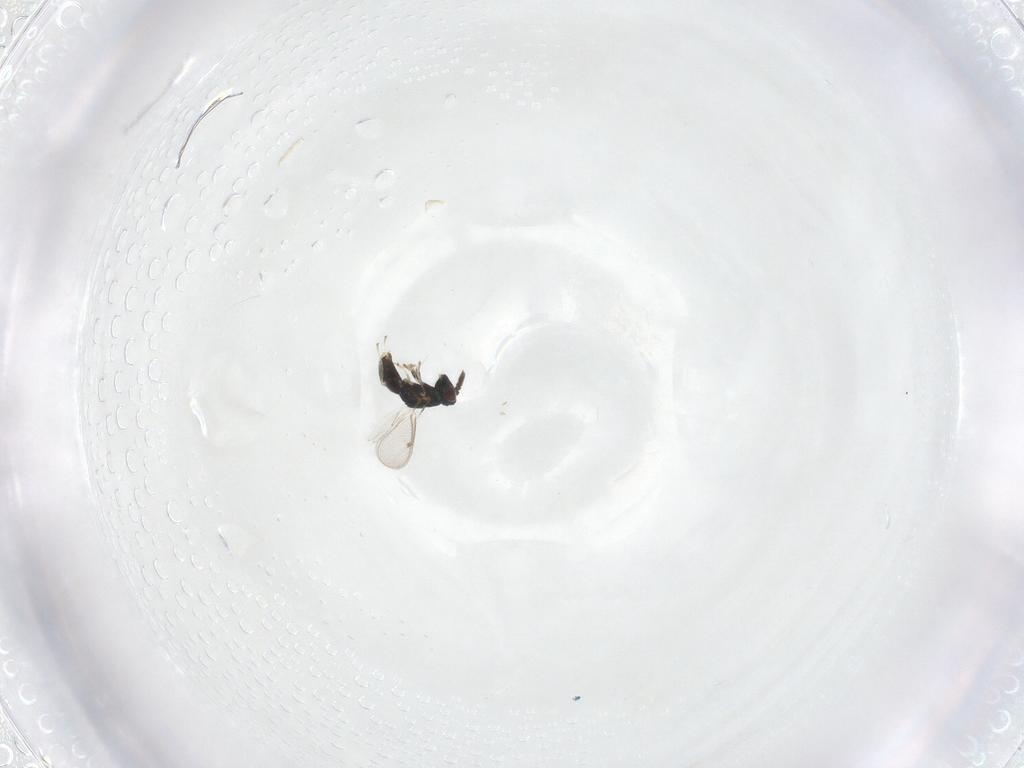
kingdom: Animalia
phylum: Arthropoda
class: Insecta
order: Hymenoptera
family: Eulophidae
